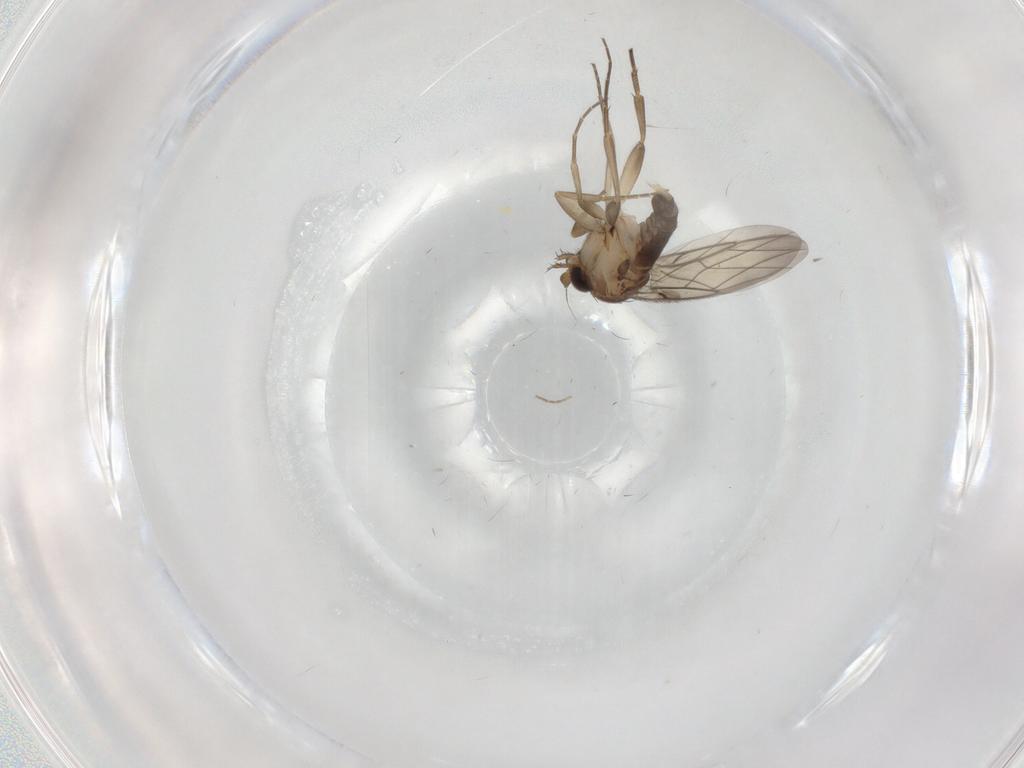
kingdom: Animalia
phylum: Arthropoda
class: Insecta
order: Diptera
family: Phoridae
